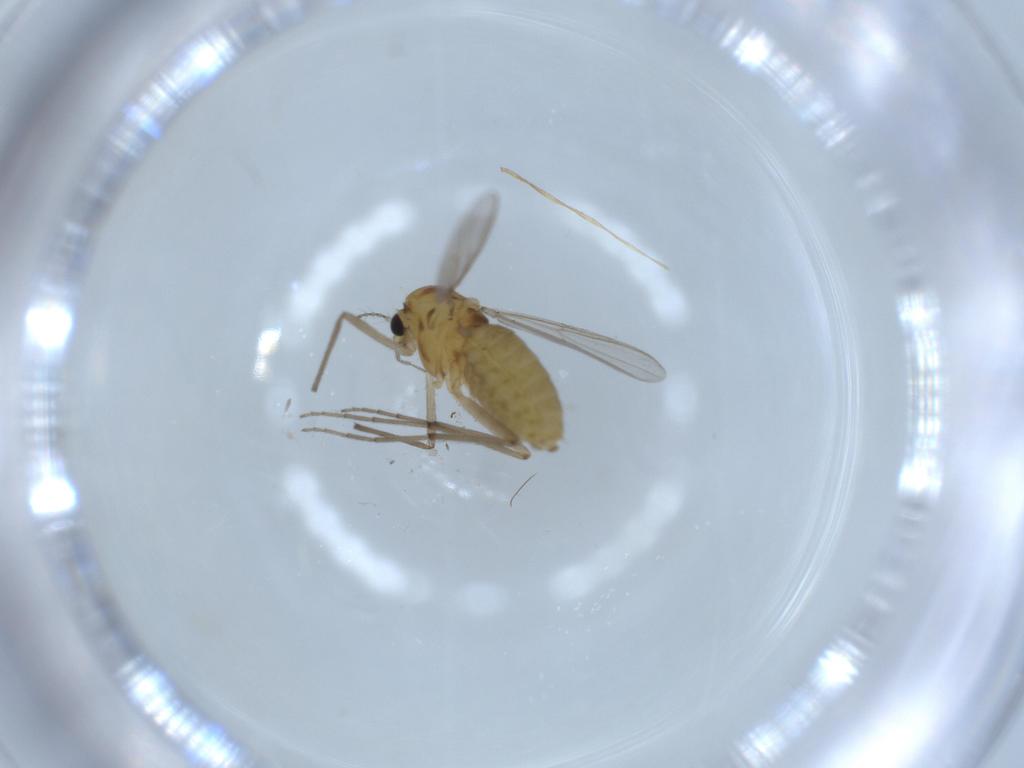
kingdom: Animalia
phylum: Arthropoda
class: Insecta
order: Diptera
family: Chironomidae
